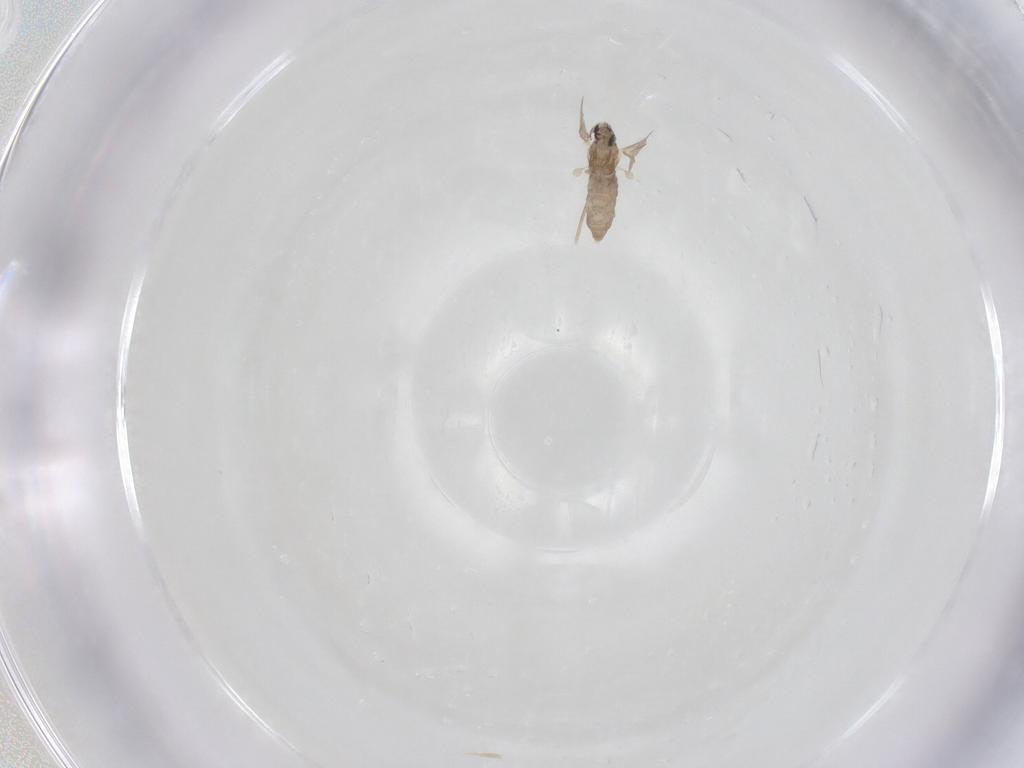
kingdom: Animalia
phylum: Arthropoda
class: Insecta
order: Diptera
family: Cecidomyiidae
